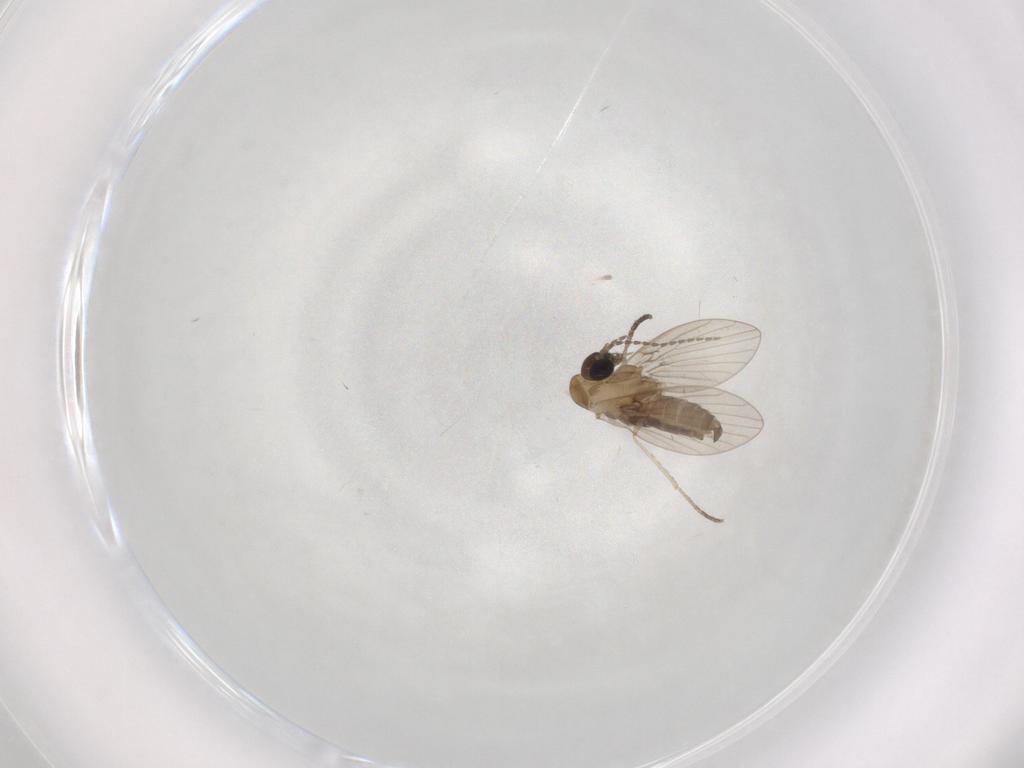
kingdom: Animalia
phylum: Arthropoda
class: Insecta
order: Diptera
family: Psychodidae
